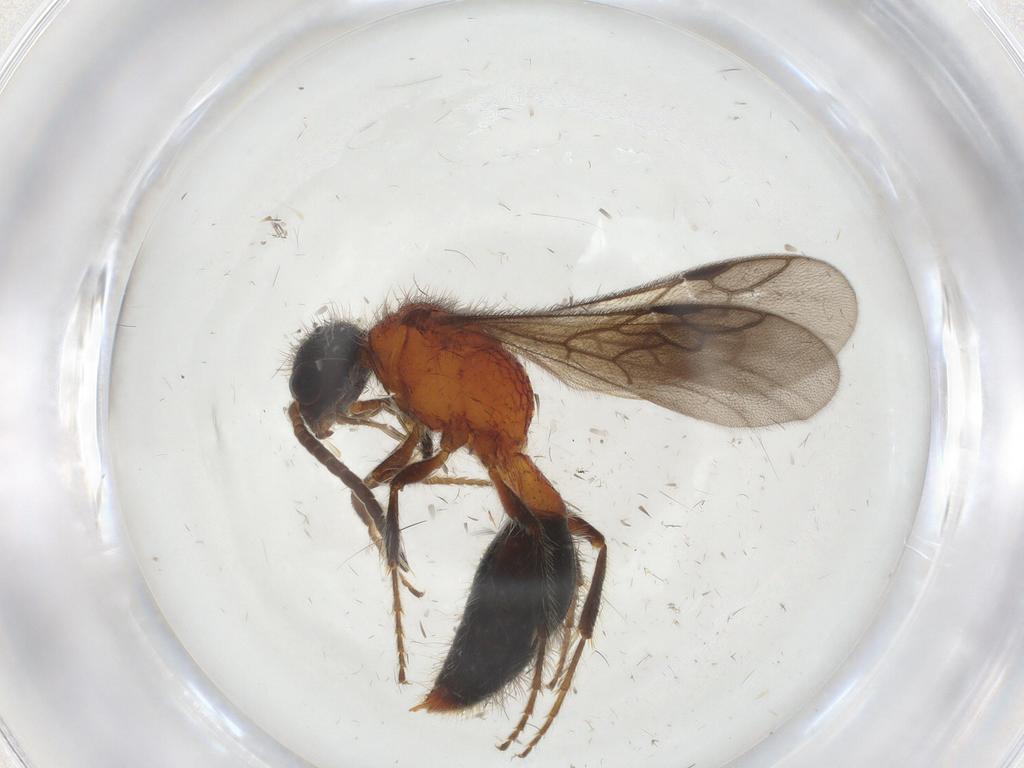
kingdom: Animalia
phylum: Arthropoda
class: Insecta
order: Hymenoptera
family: Mutillidae
